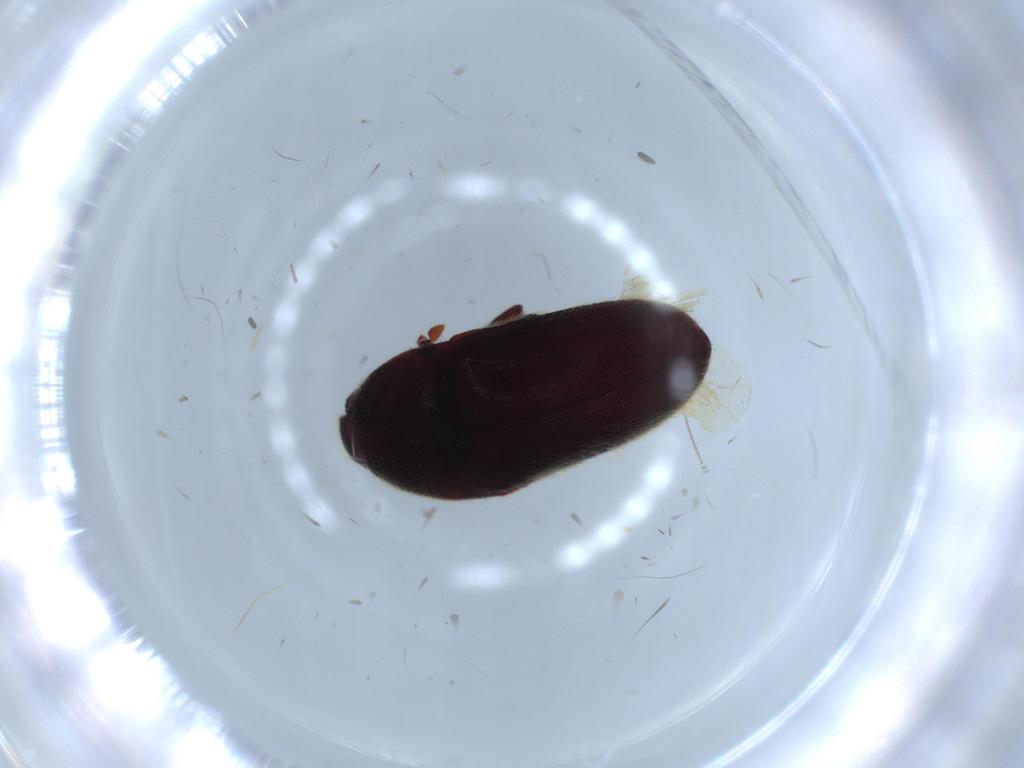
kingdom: Animalia
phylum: Arthropoda
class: Insecta
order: Coleoptera
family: Throscidae
